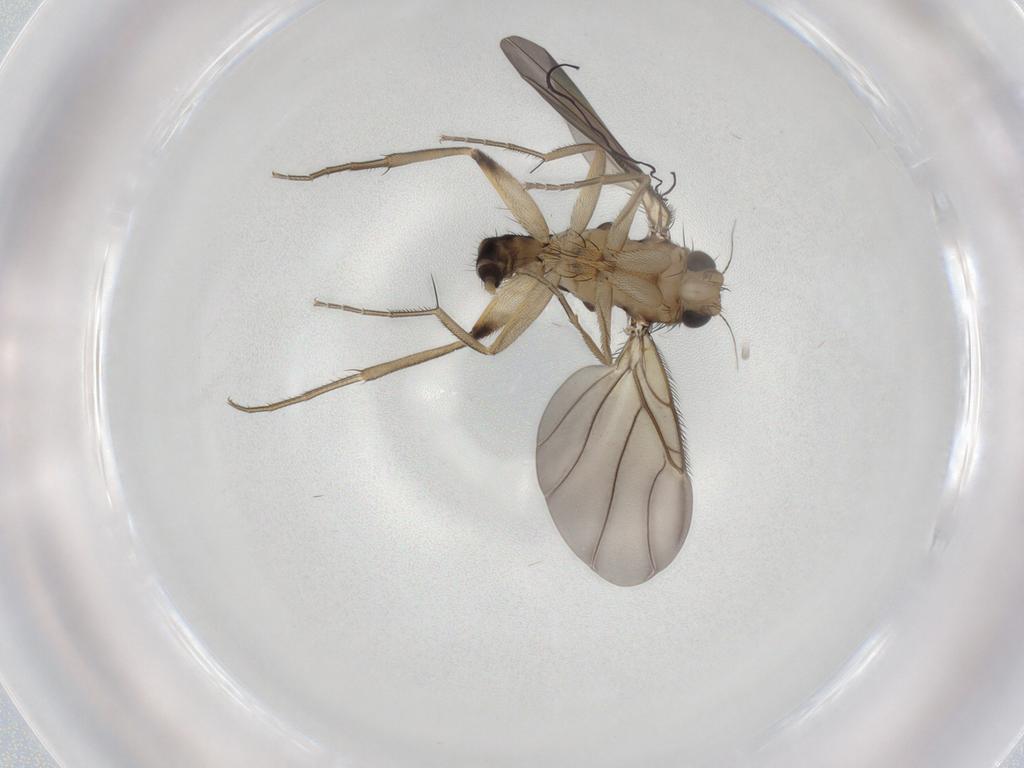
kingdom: Animalia
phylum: Arthropoda
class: Insecta
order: Diptera
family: Phoridae
